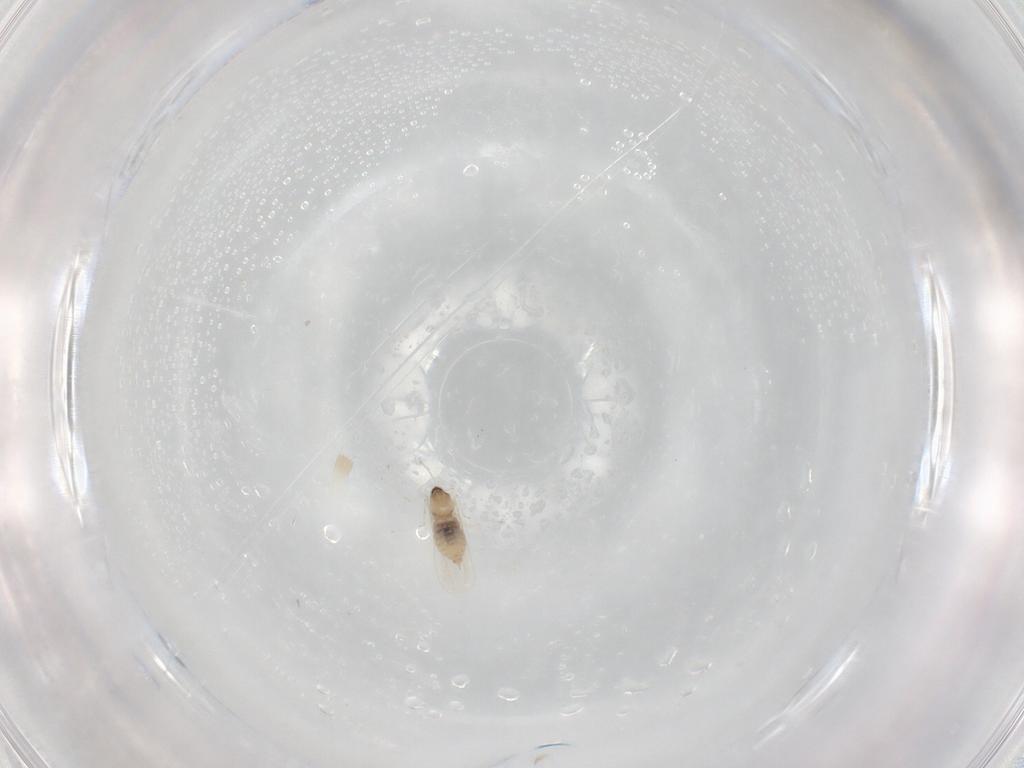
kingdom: Animalia
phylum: Arthropoda
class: Insecta
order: Diptera
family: Cecidomyiidae
